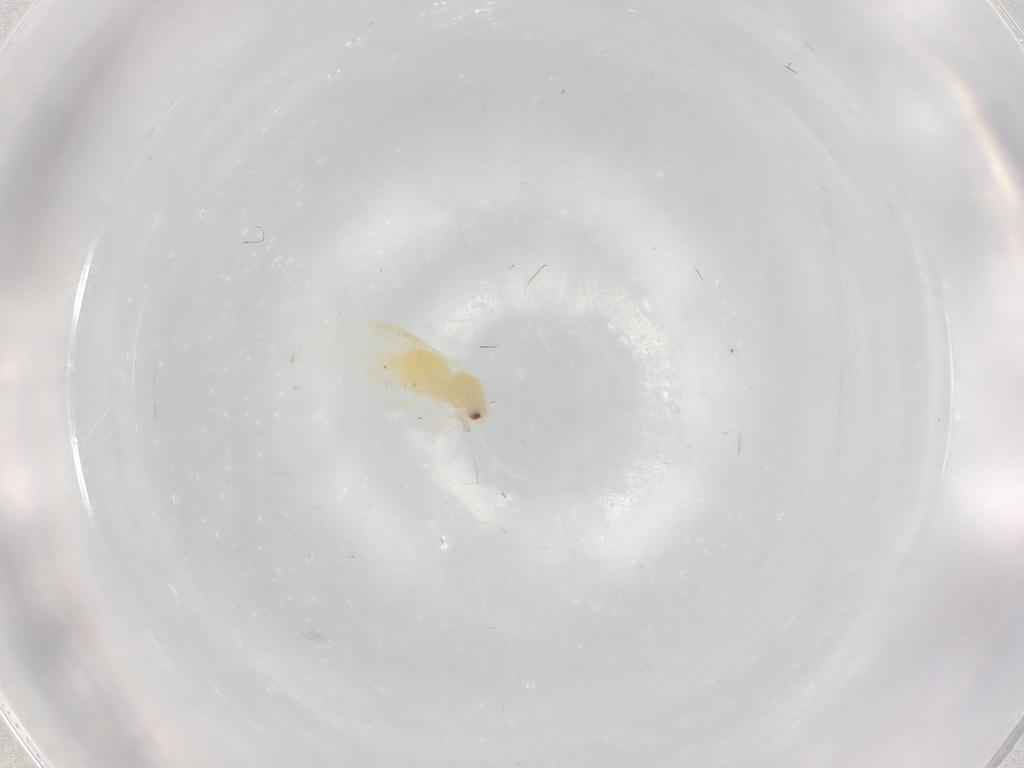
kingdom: Animalia
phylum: Arthropoda
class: Insecta
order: Hemiptera
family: Aleyrodidae
